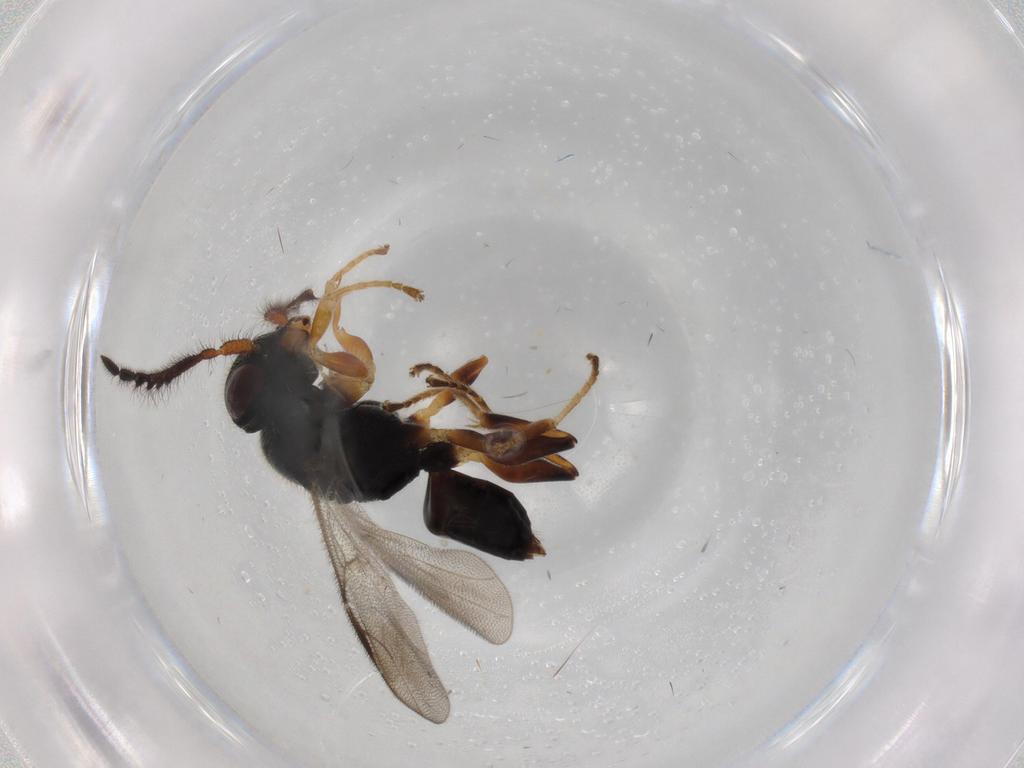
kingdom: Animalia
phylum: Arthropoda
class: Insecta
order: Hymenoptera
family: Dryinidae
